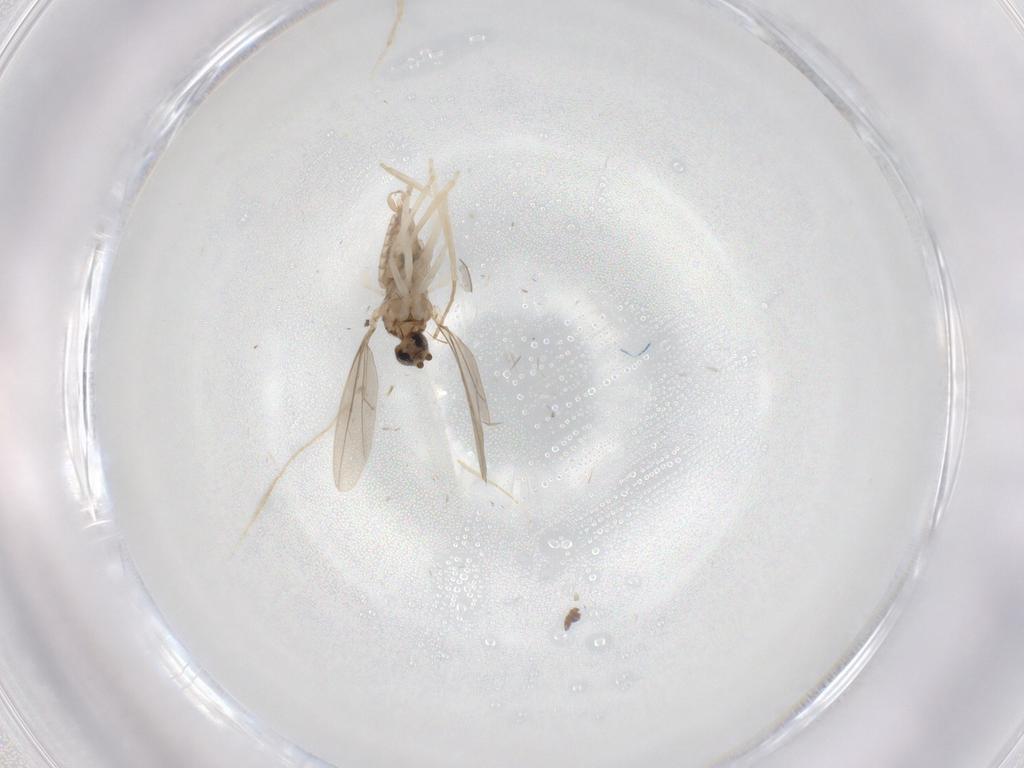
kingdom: Animalia
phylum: Arthropoda
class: Insecta
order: Diptera
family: Cecidomyiidae
